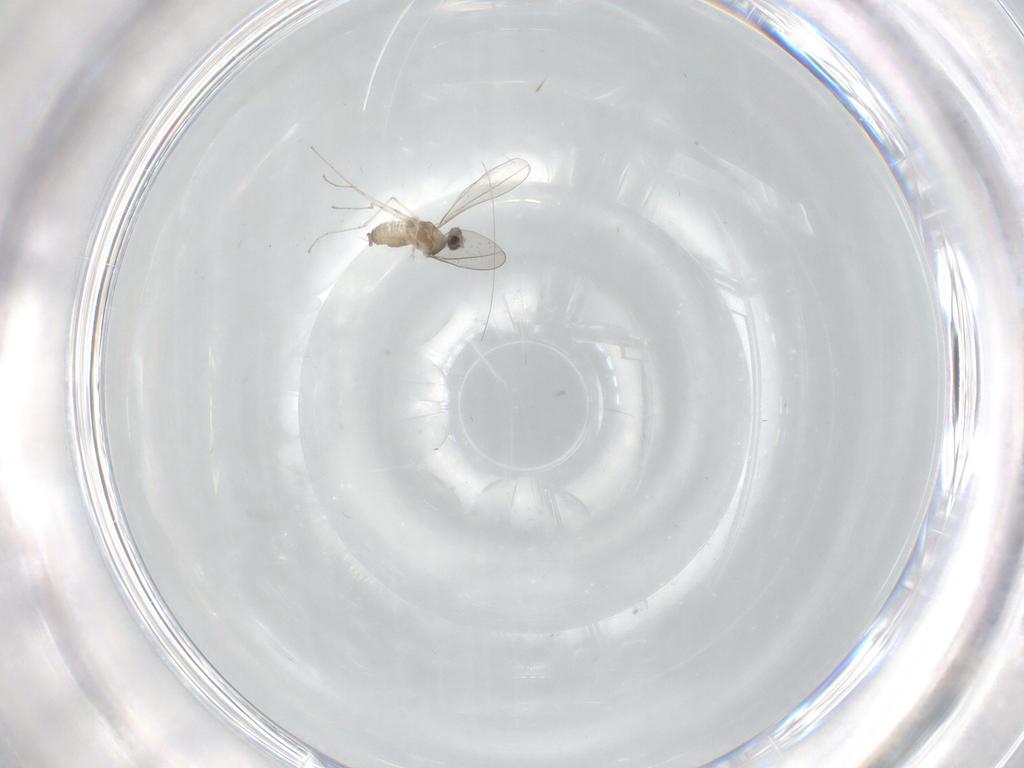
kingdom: Animalia
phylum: Arthropoda
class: Insecta
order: Diptera
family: Cecidomyiidae
